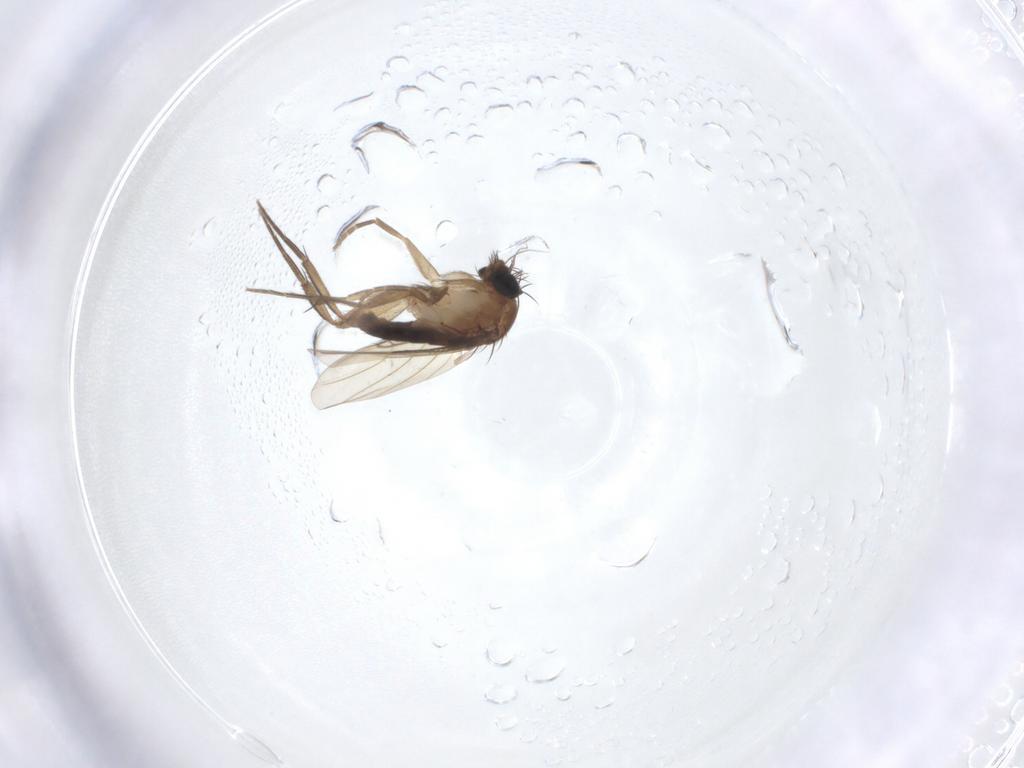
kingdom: Animalia
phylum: Arthropoda
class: Insecta
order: Diptera
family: Phoridae
